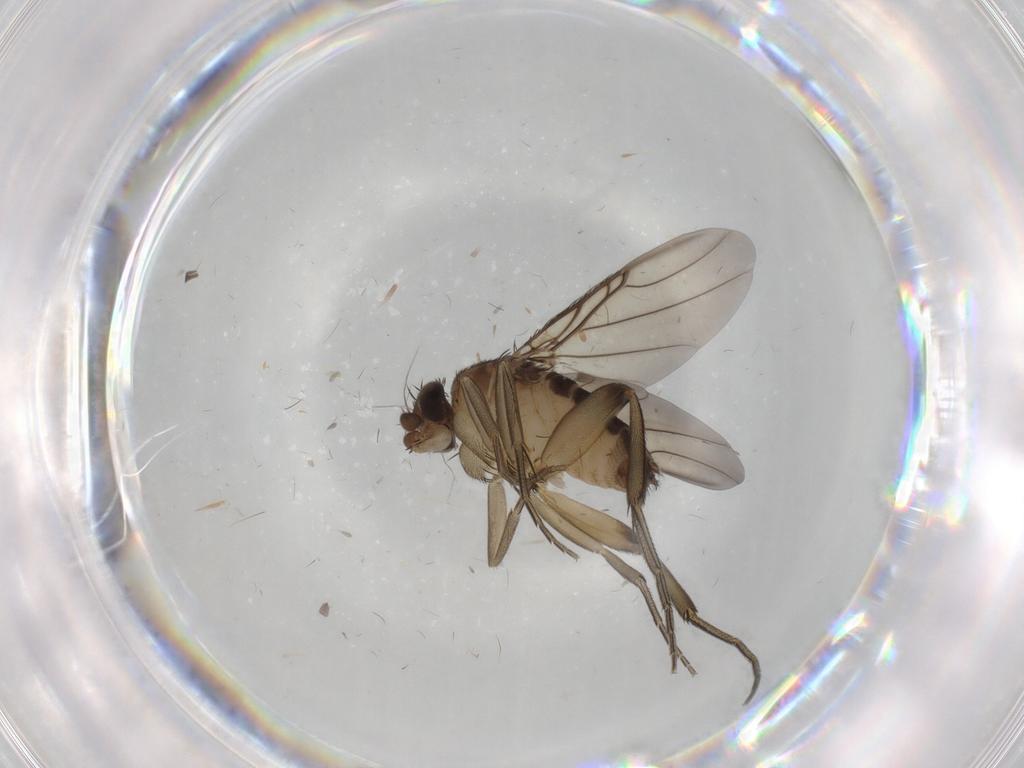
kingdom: Animalia
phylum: Arthropoda
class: Insecta
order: Diptera
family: Phoridae
